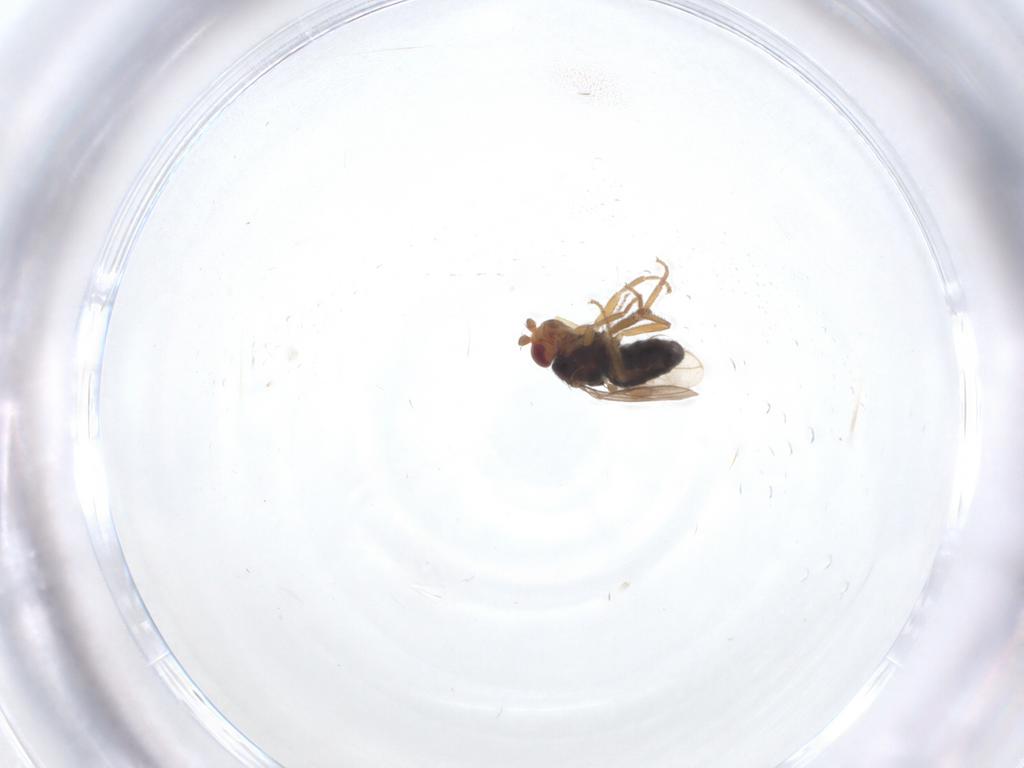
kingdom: Animalia
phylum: Arthropoda
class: Insecta
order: Diptera
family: Sphaeroceridae
